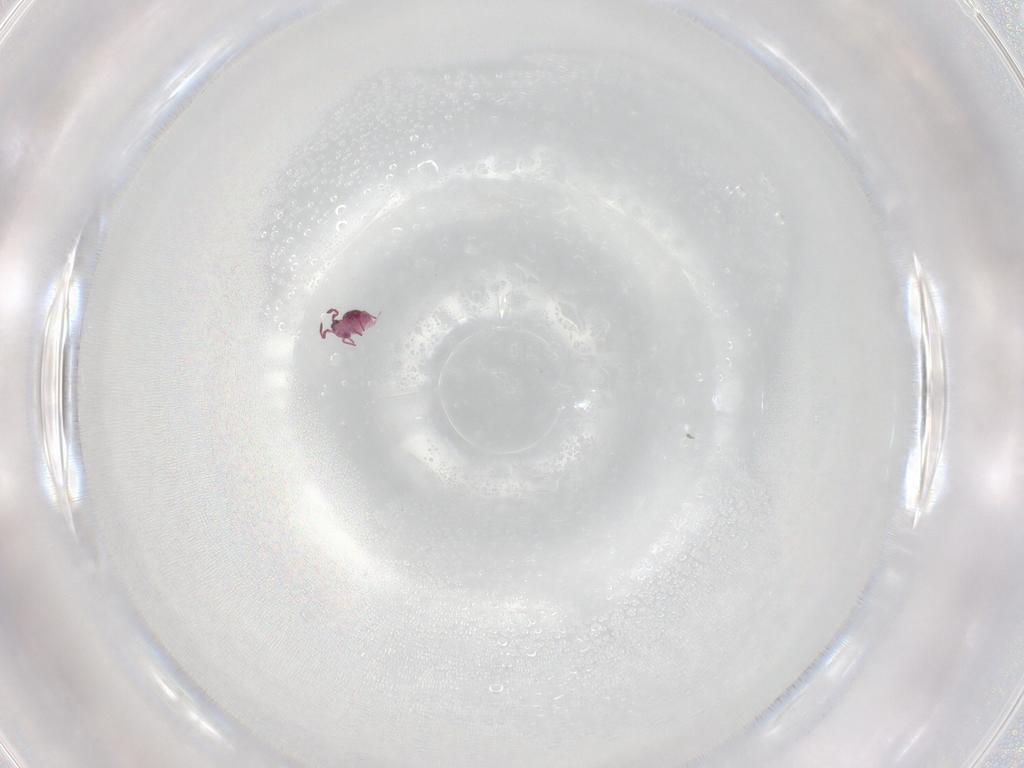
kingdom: Animalia
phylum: Arthropoda
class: Collembola
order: Symphypleona
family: Sminthurididae
